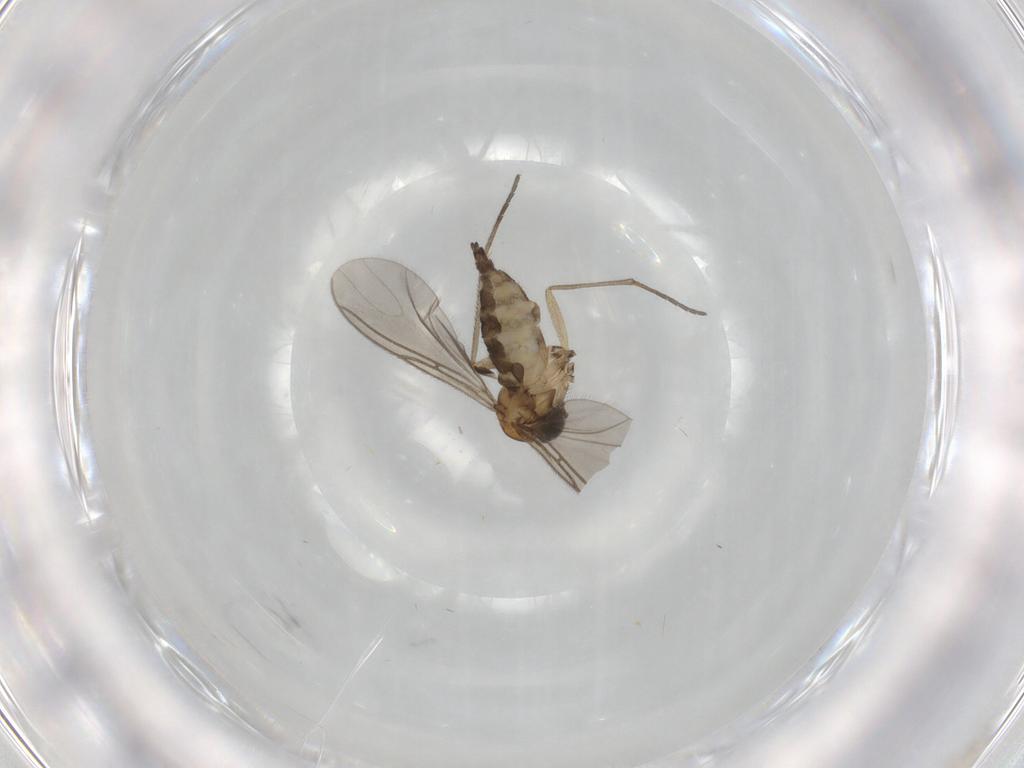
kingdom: Animalia
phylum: Arthropoda
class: Insecta
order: Diptera
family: Sciaridae
